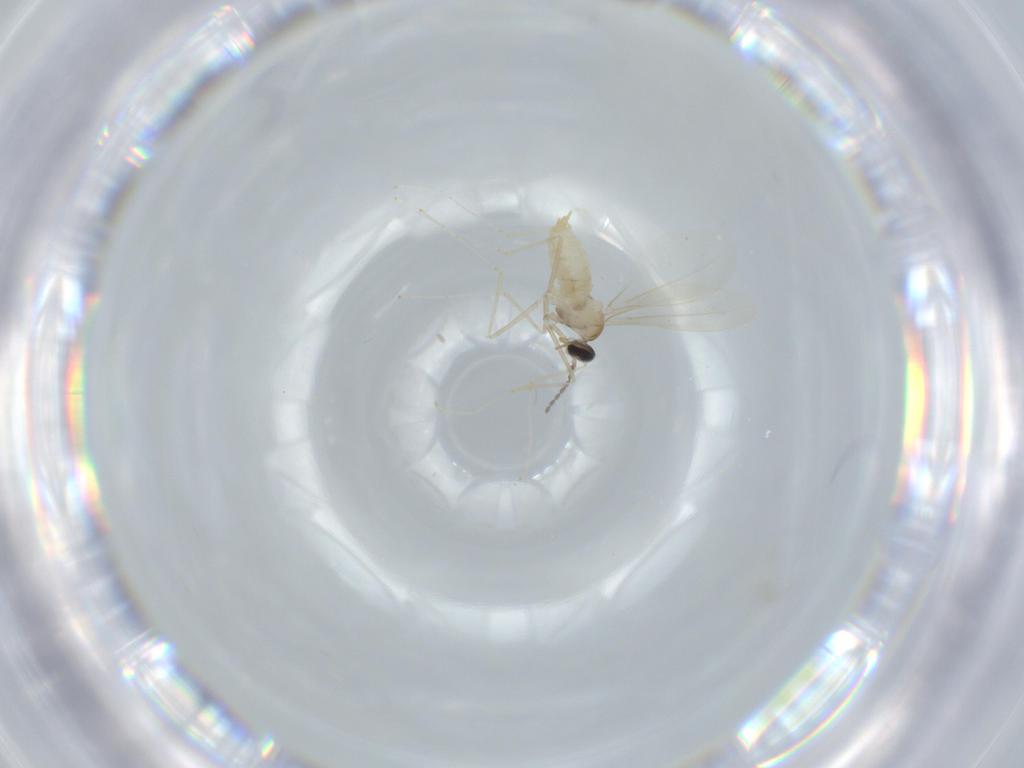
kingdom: Animalia
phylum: Arthropoda
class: Insecta
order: Diptera
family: Cecidomyiidae
